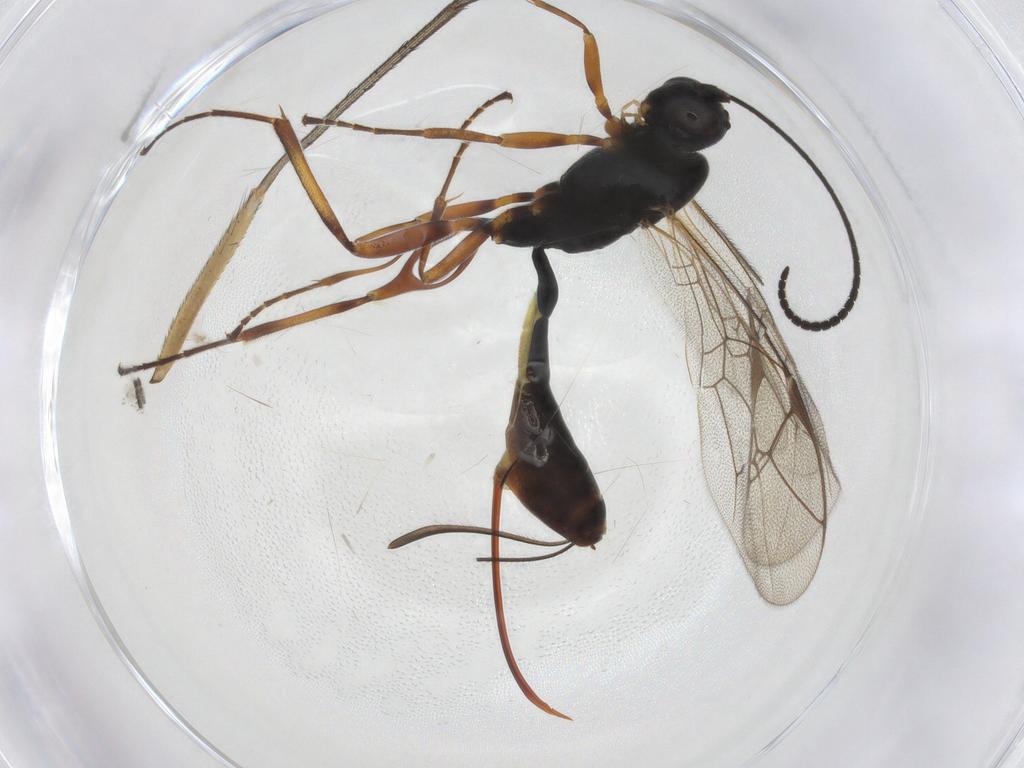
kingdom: Animalia
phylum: Arthropoda
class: Insecta
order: Hymenoptera
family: Ichneumonidae
